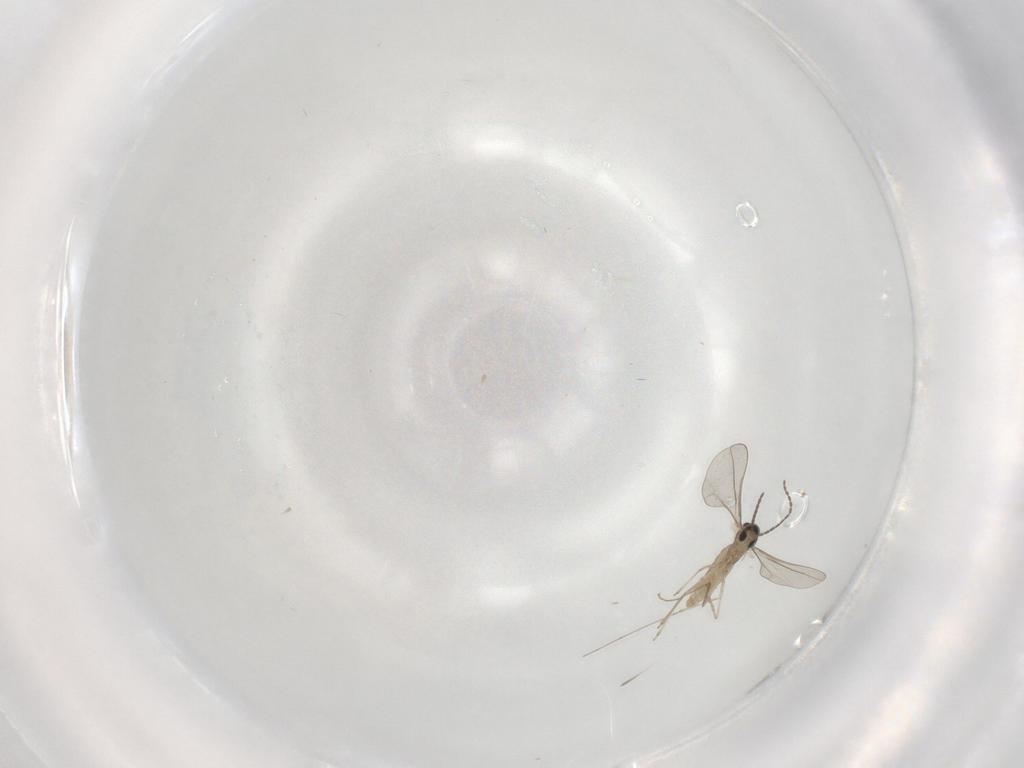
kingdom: Animalia
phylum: Arthropoda
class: Insecta
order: Diptera
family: Cecidomyiidae
